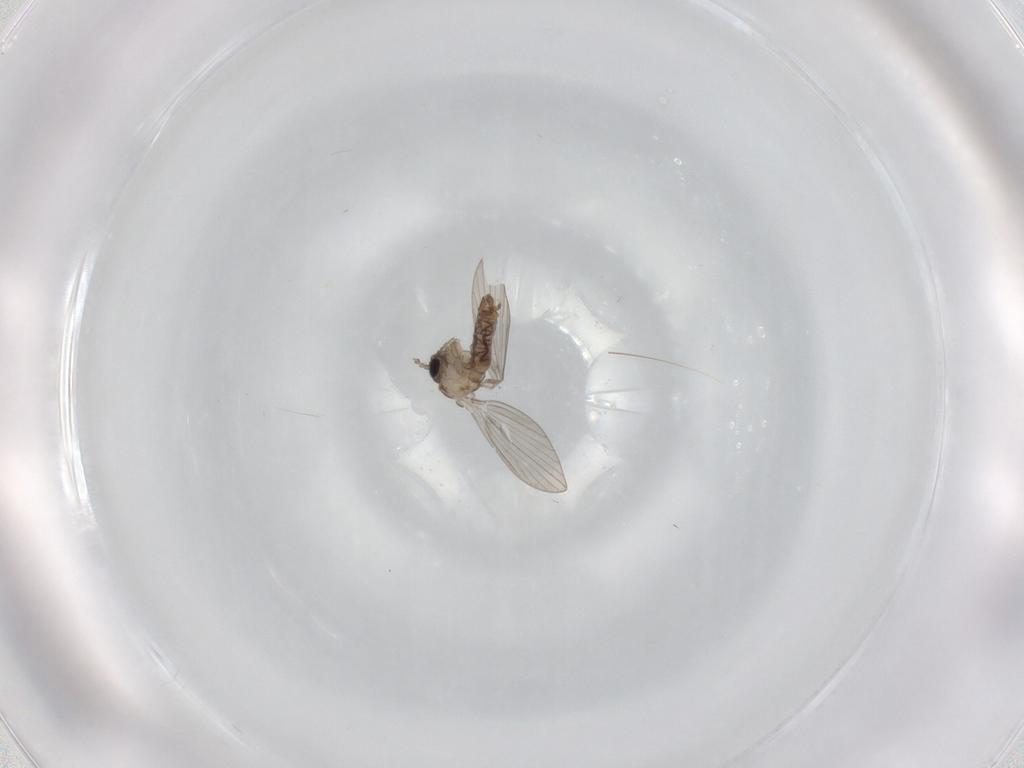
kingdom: Animalia
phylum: Arthropoda
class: Insecta
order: Diptera
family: Psychodidae
